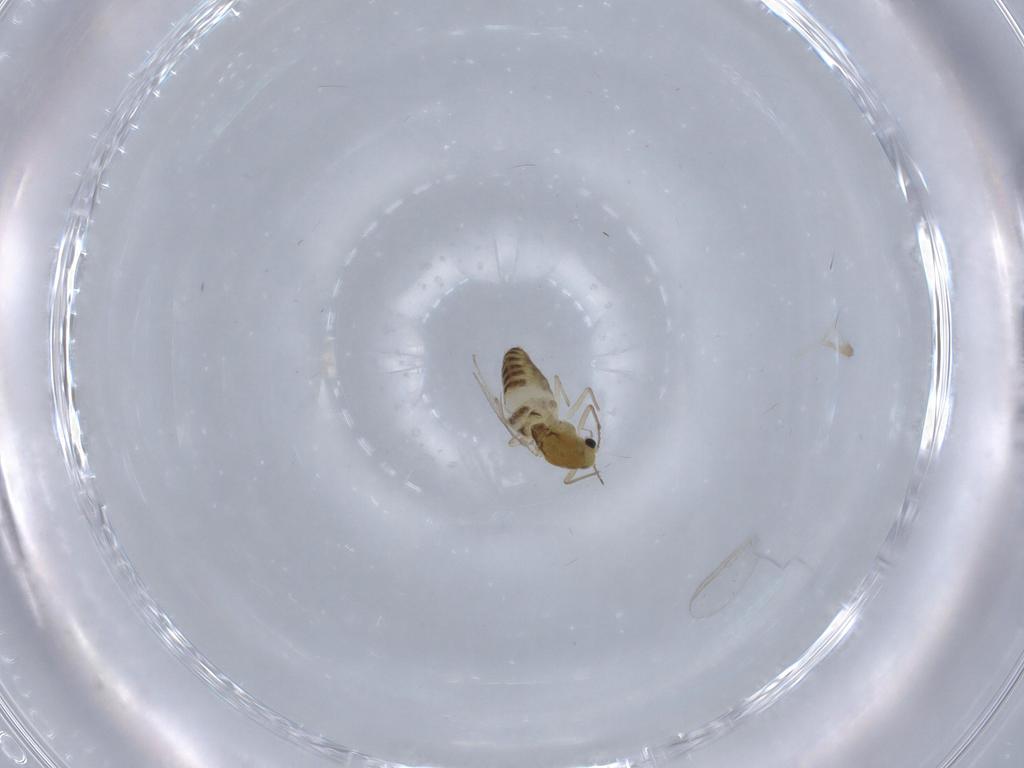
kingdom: Animalia
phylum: Arthropoda
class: Insecta
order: Diptera
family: Chironomidae
